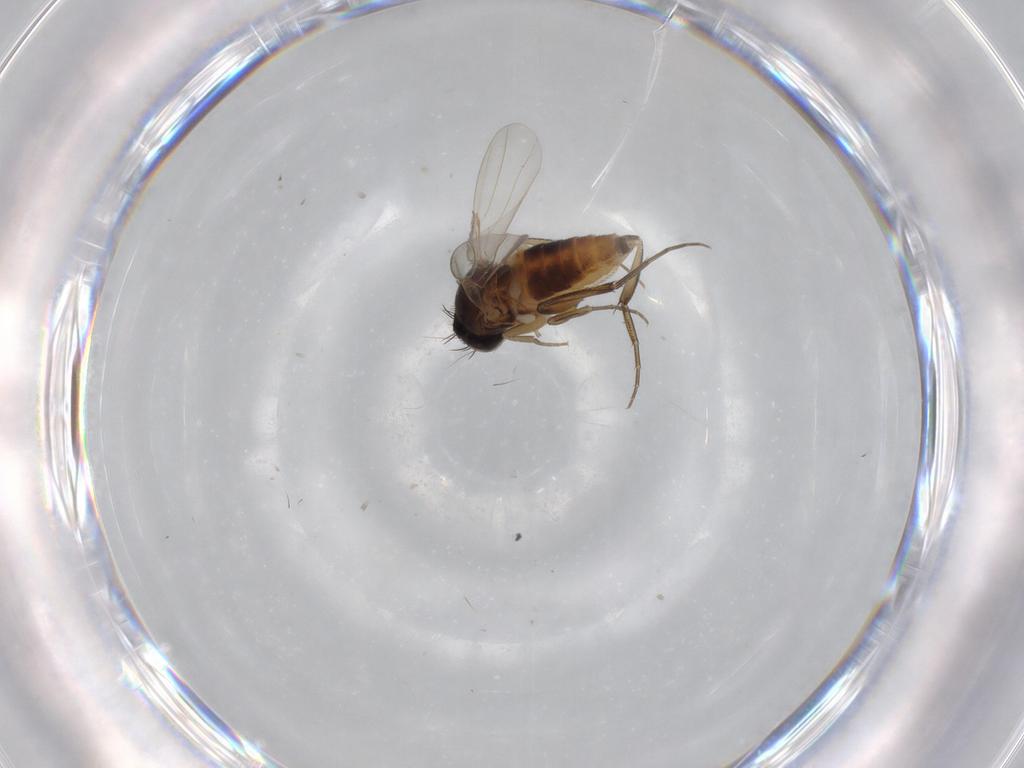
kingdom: Animalia
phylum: Arthropoda
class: Insecta
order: Diptera
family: Phoridae
